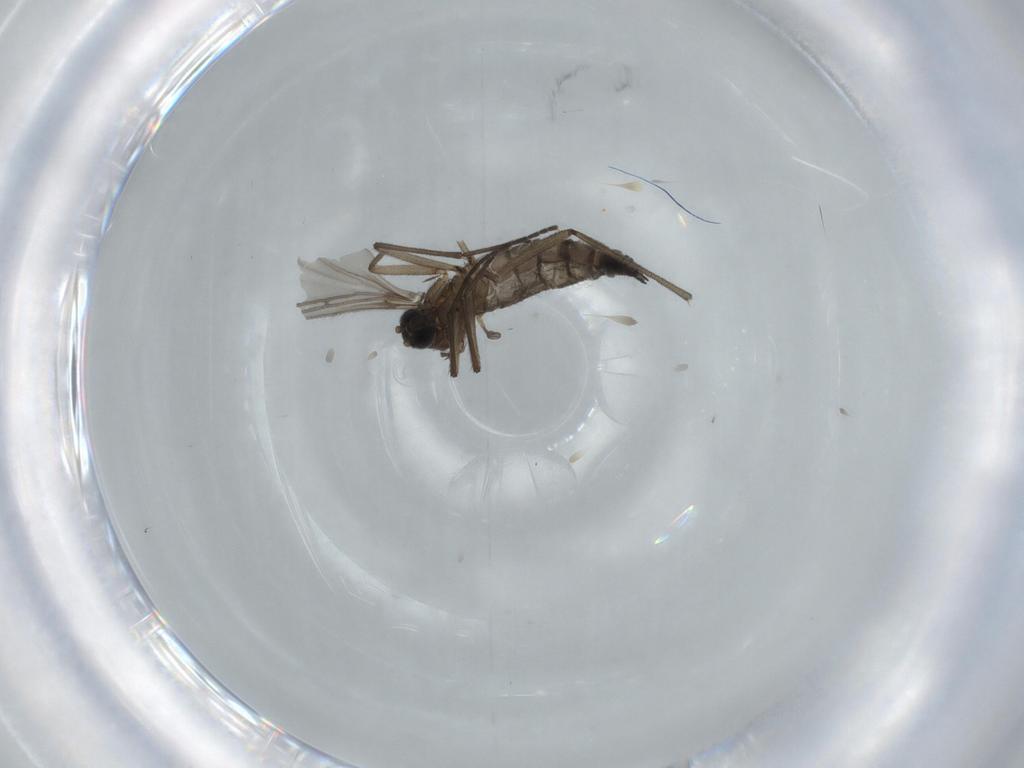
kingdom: Animalia
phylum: Arthropoda
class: Insecta
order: Diptera
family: Sciaridae
